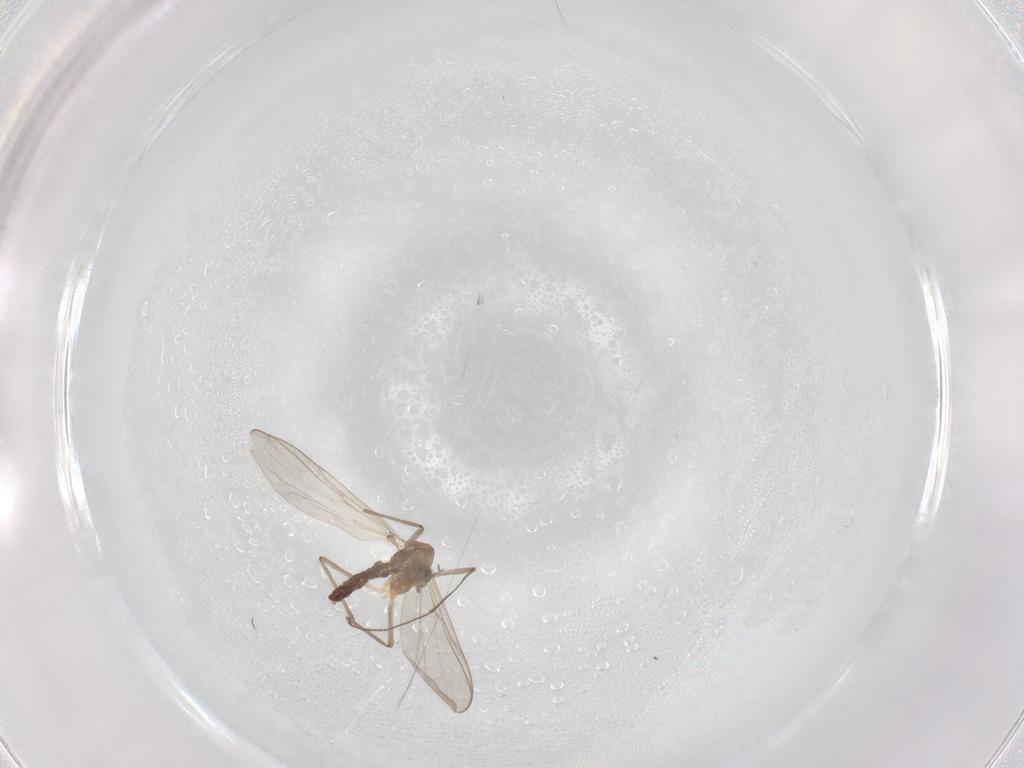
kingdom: Animalia
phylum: Arthropoda
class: Insecta
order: Diptera
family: Chironomidae
